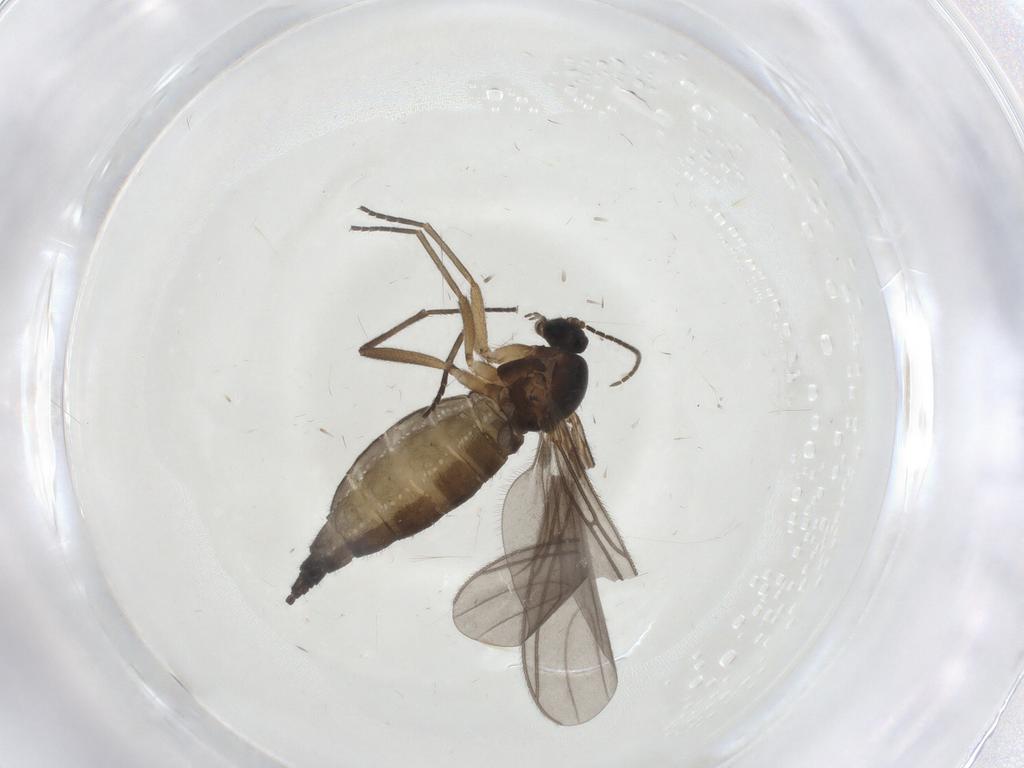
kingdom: Animalia
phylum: Arthropoda
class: Insecta
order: Diptera
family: Sciaridae
